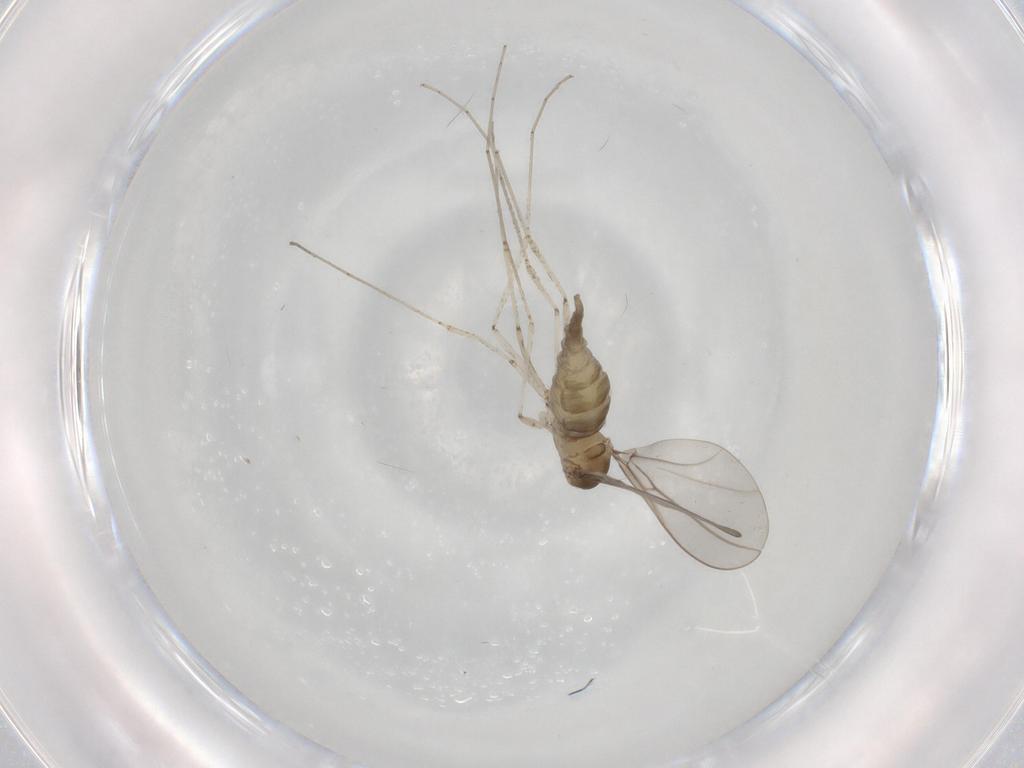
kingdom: Animalia
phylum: Arthropoda
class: Insecta
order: Diptera
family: Cecidomyiidae
